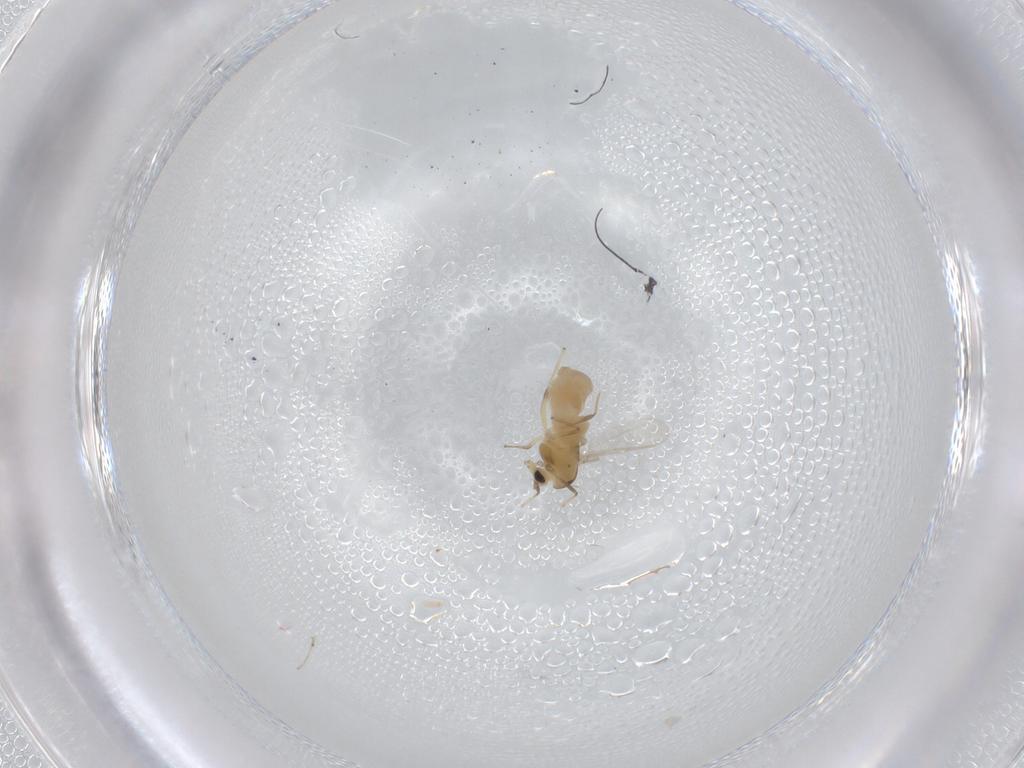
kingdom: Animalia
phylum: Arthropoda
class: Insecta
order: Diptera
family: Chironomidae
